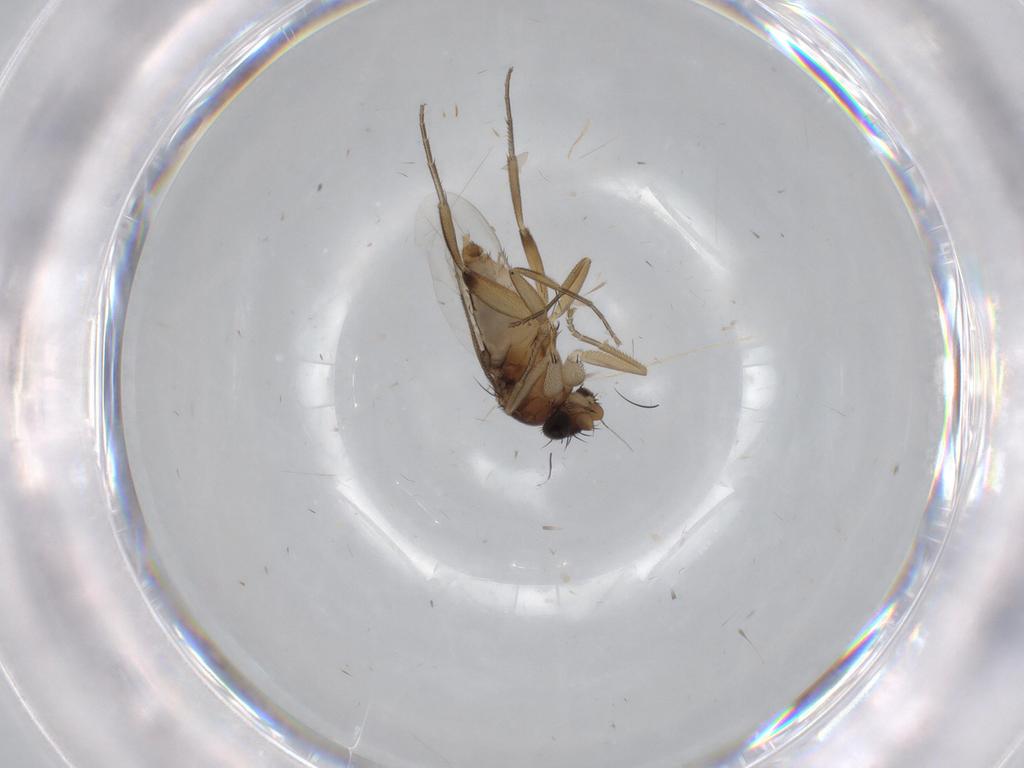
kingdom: Animalia
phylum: Arthropoda
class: Insecta
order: Diptera
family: Phoridae
